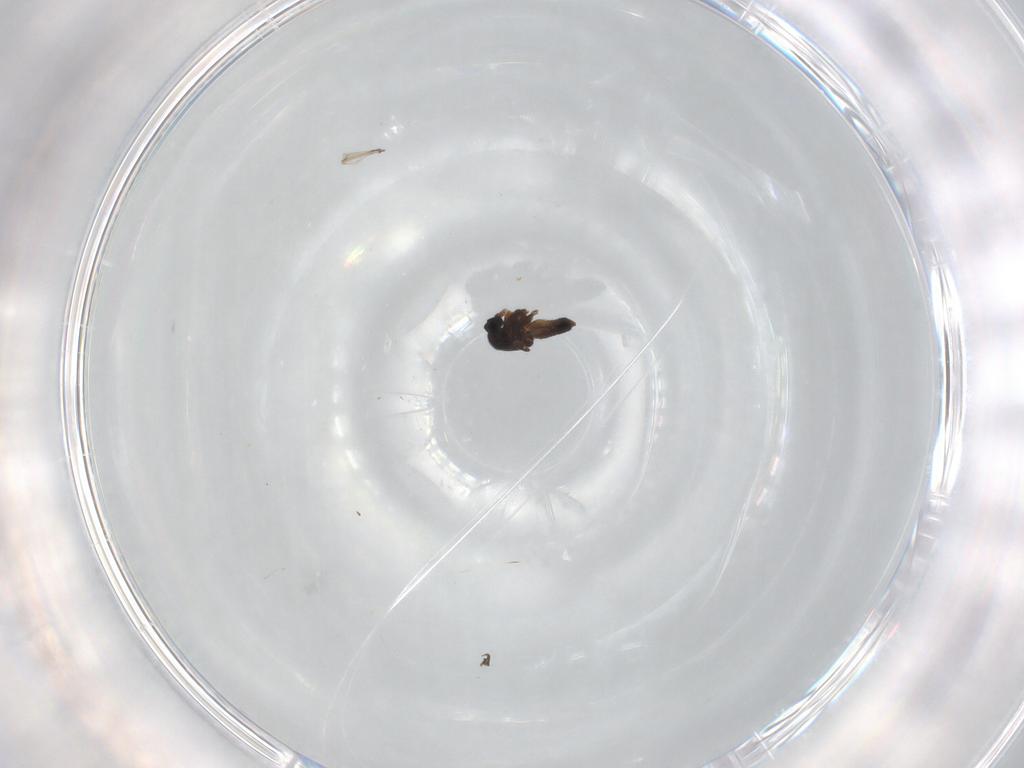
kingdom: Animalia
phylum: Arthropoda
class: Insecta
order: Diptera
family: Ceratopogonidae
